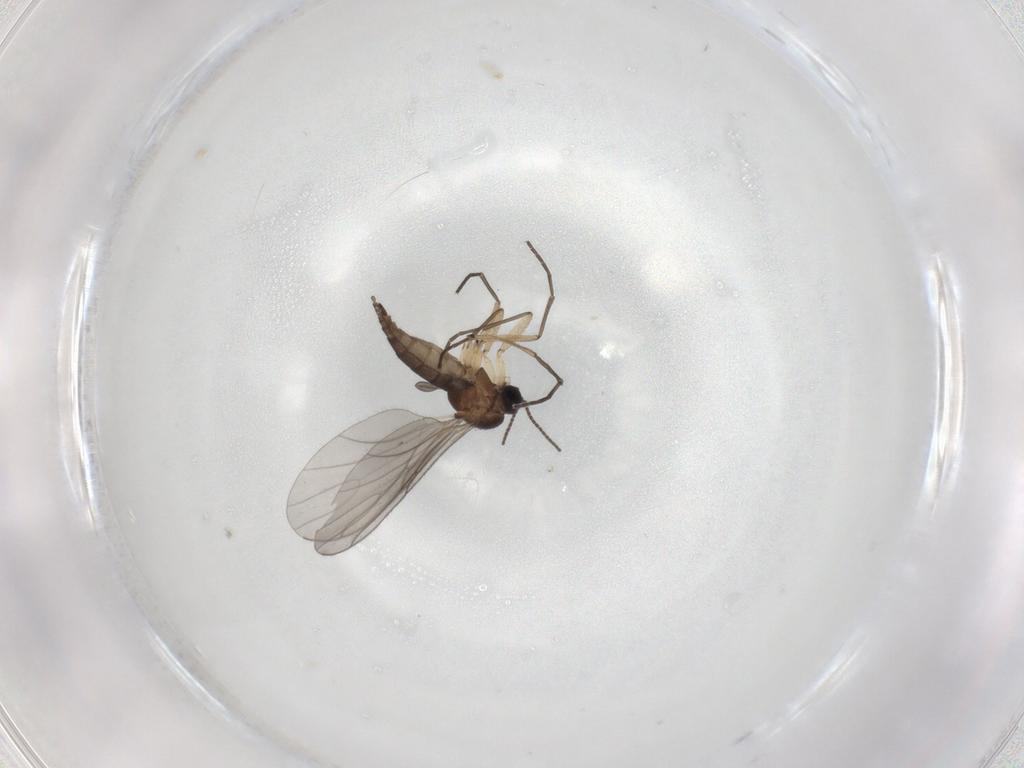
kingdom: Animalia
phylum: Arthropoda
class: Insecta
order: Diptera
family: Sciaridae
